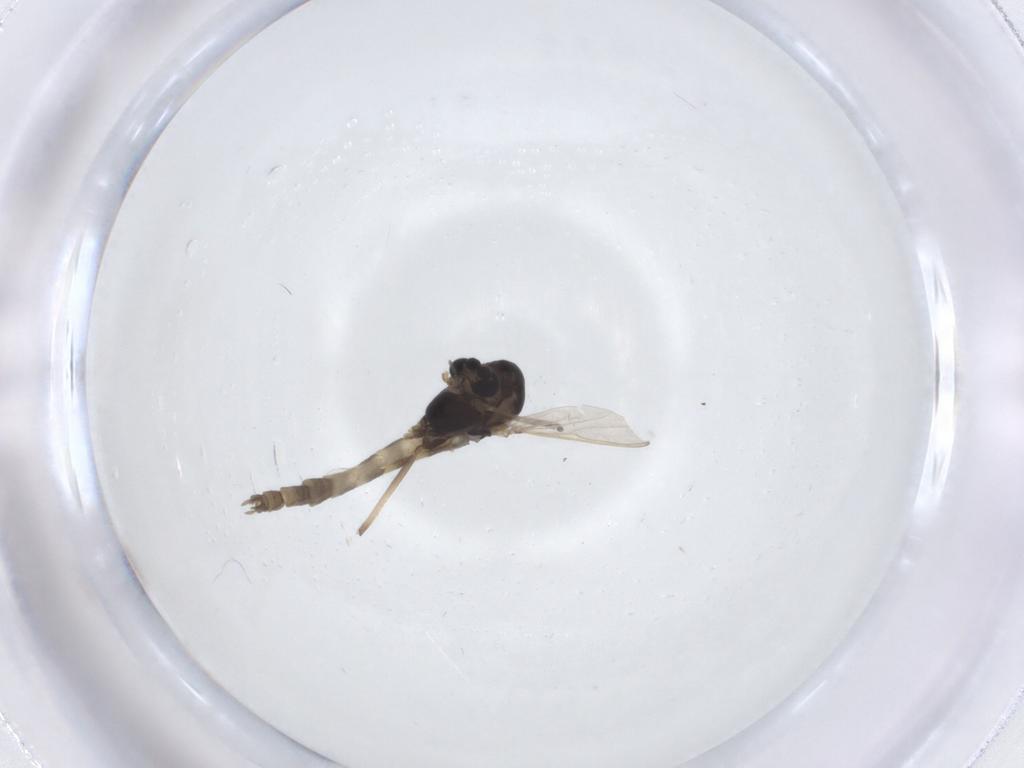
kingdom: Animalia
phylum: Arthropoda
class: Insecta
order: Diptera
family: Chironomidae
